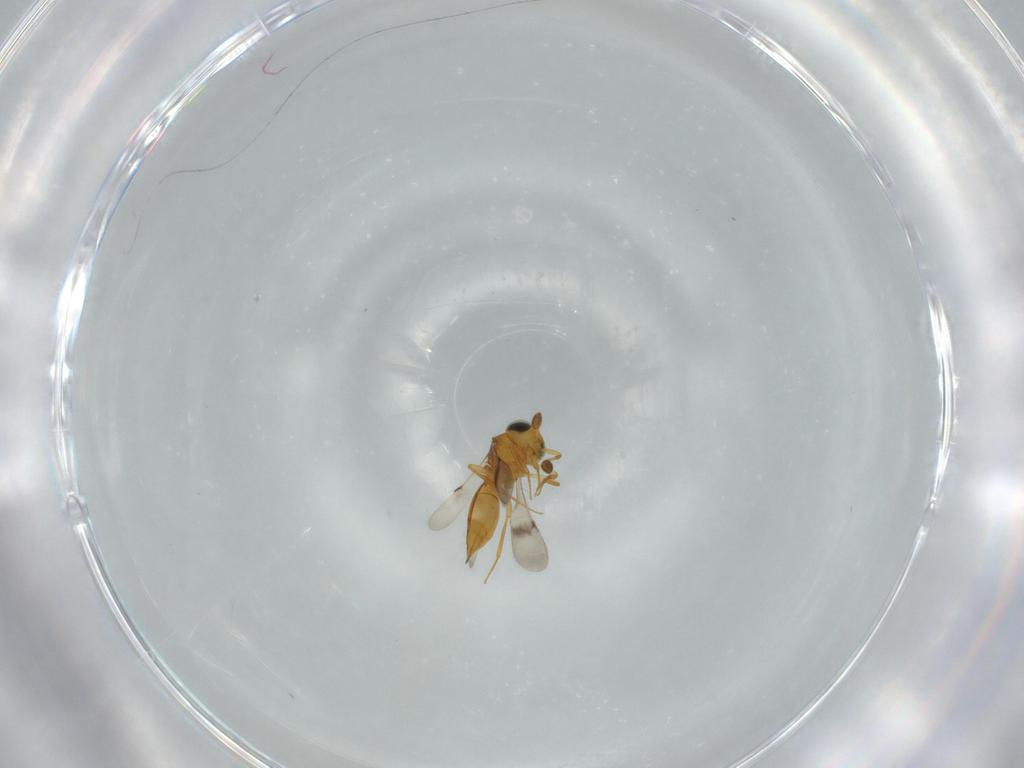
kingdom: Animalia
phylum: Arthropoda
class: Insecta
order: Hymenoptera
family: Scelionidae
